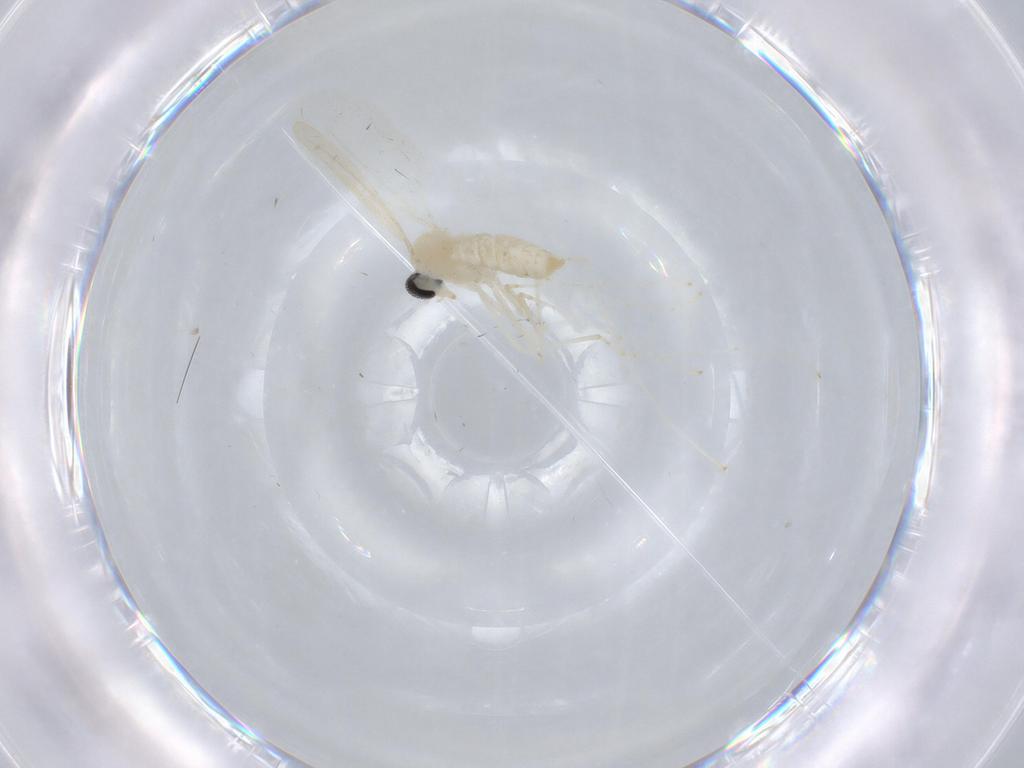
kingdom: Animalia
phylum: Arthropoda
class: Insecta
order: Diptera
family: Cecidomyiidae
